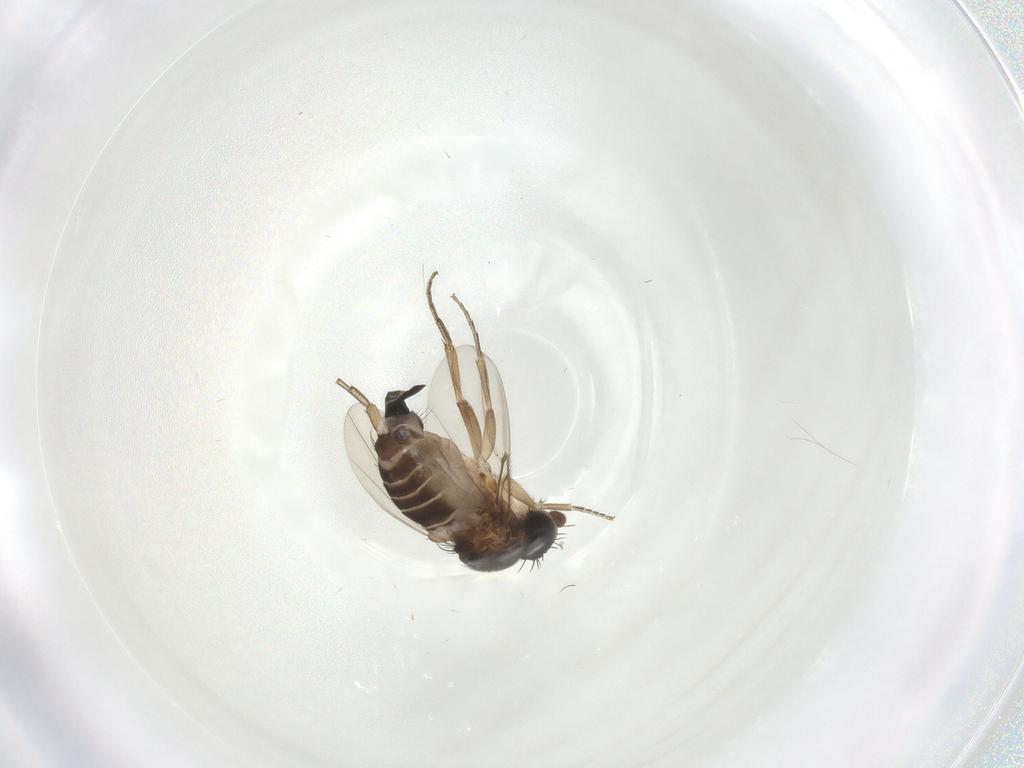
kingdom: Animalia
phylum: Arthropoda
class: Insecta
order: Diptera
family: Phoridae
